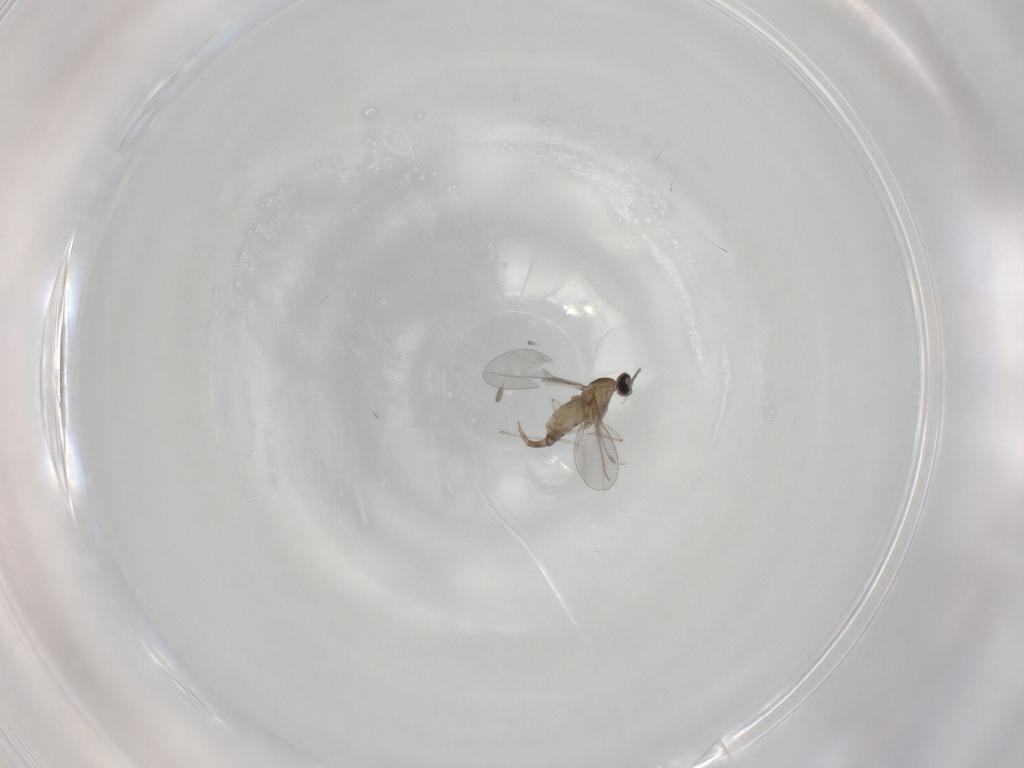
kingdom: Animalia
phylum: Arthropoda
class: Insecta
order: Diptera
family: Cecidomyiidae
